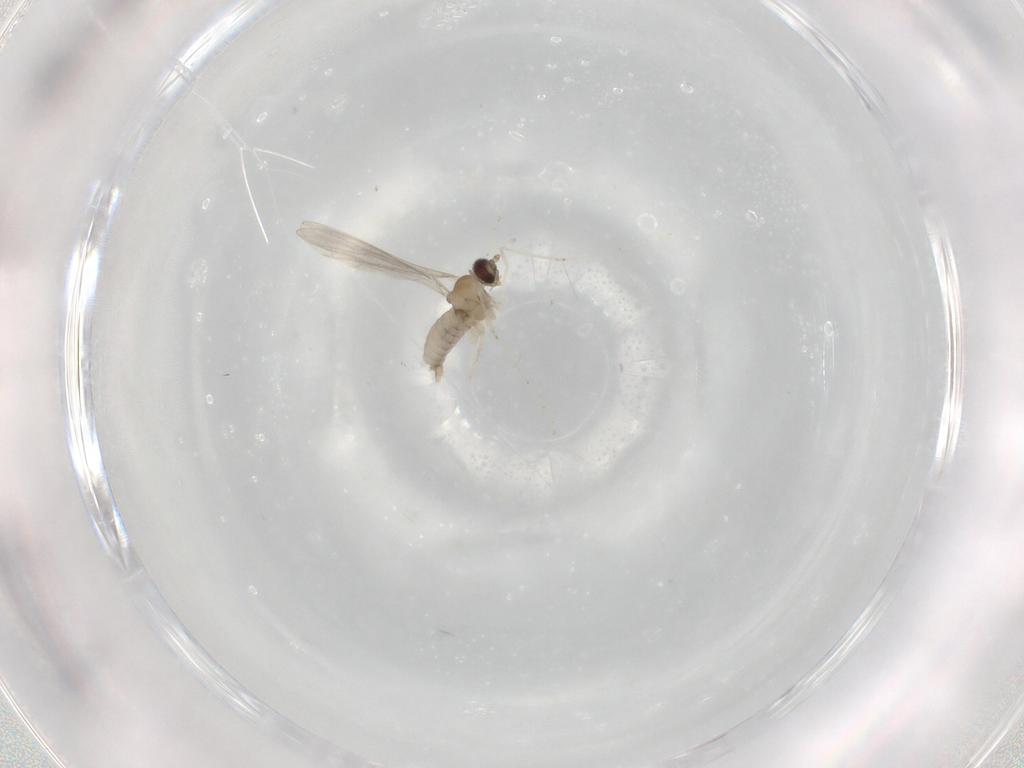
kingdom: Animalia
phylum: Arthropoda
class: Insecta
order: Diptera
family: Cecidomyiidae
